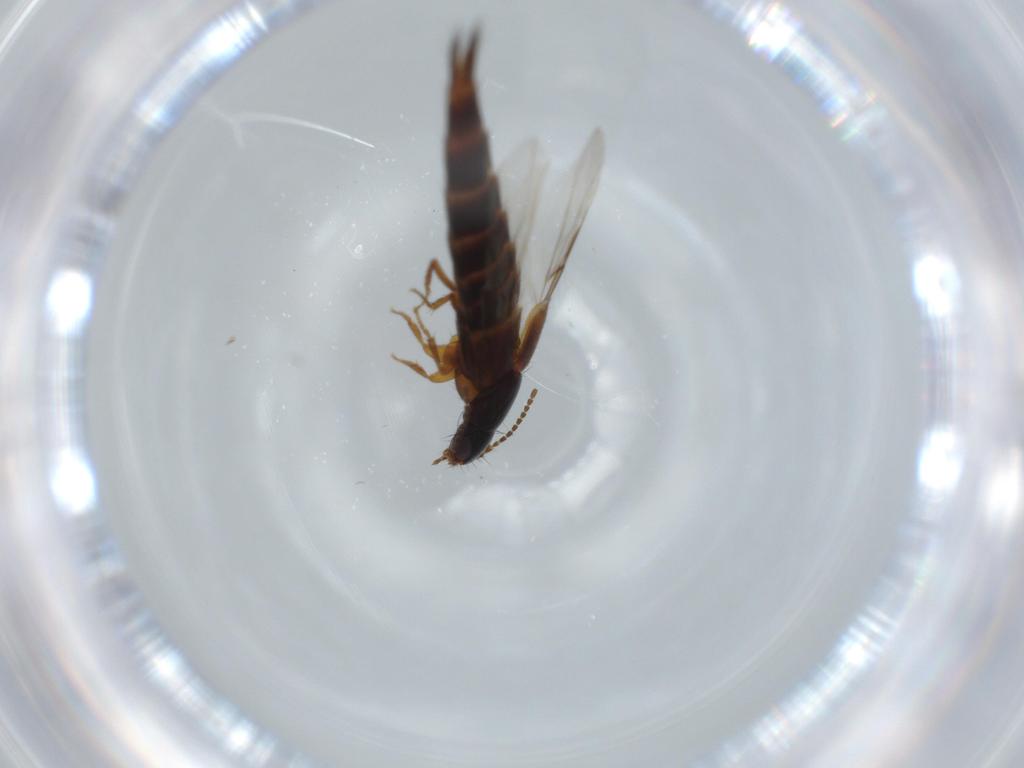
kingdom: Animalia
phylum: Arthropoda
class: Insecta
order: Coleoptera
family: Staphylinidae
